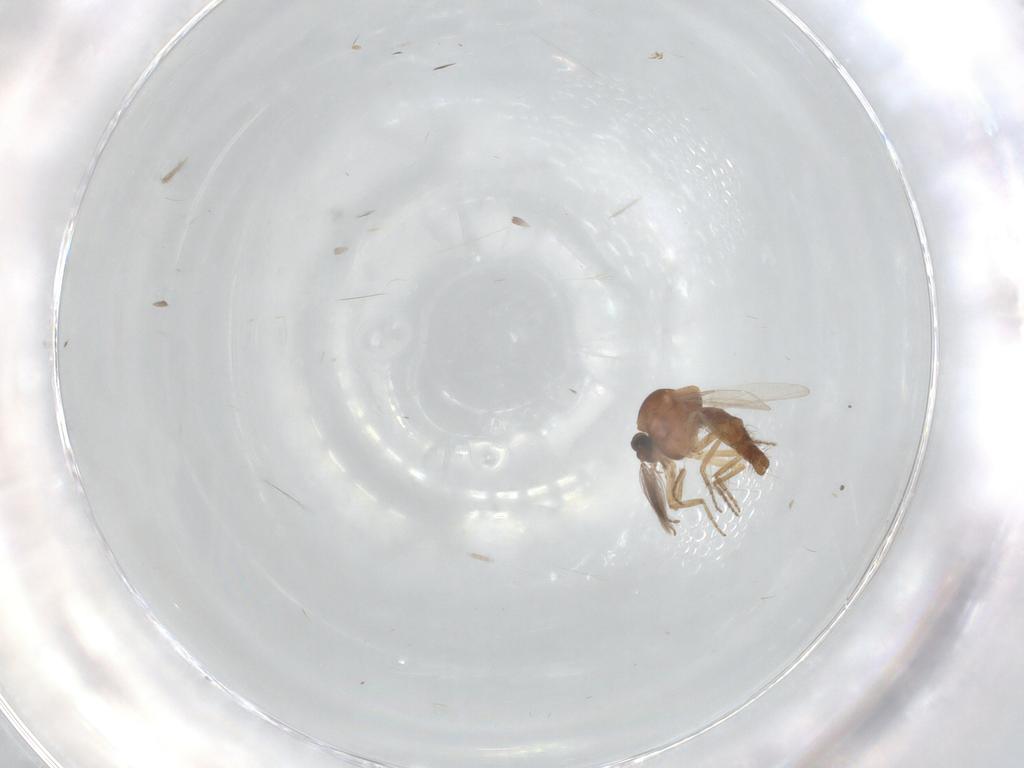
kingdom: Animalia
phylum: Arthropoda
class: Insecta
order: Diptera
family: Ceratopogonidae
